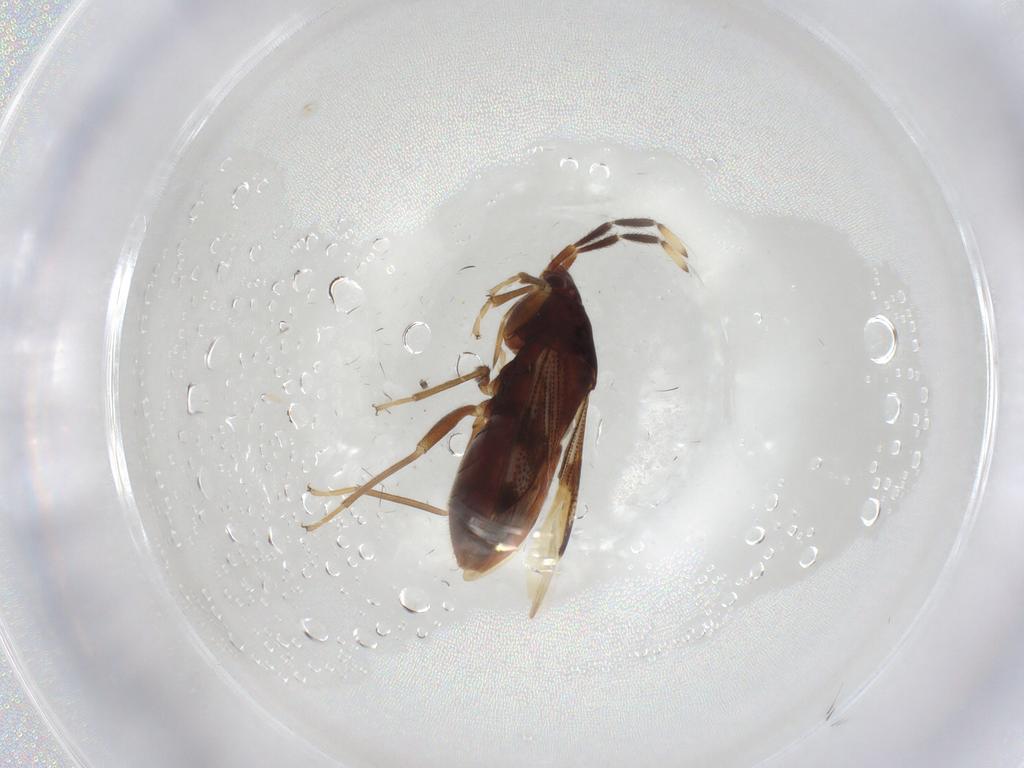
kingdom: Animalia
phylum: Arthropoda
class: Insecta
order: Hemiptera
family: Rhyparochromidae
